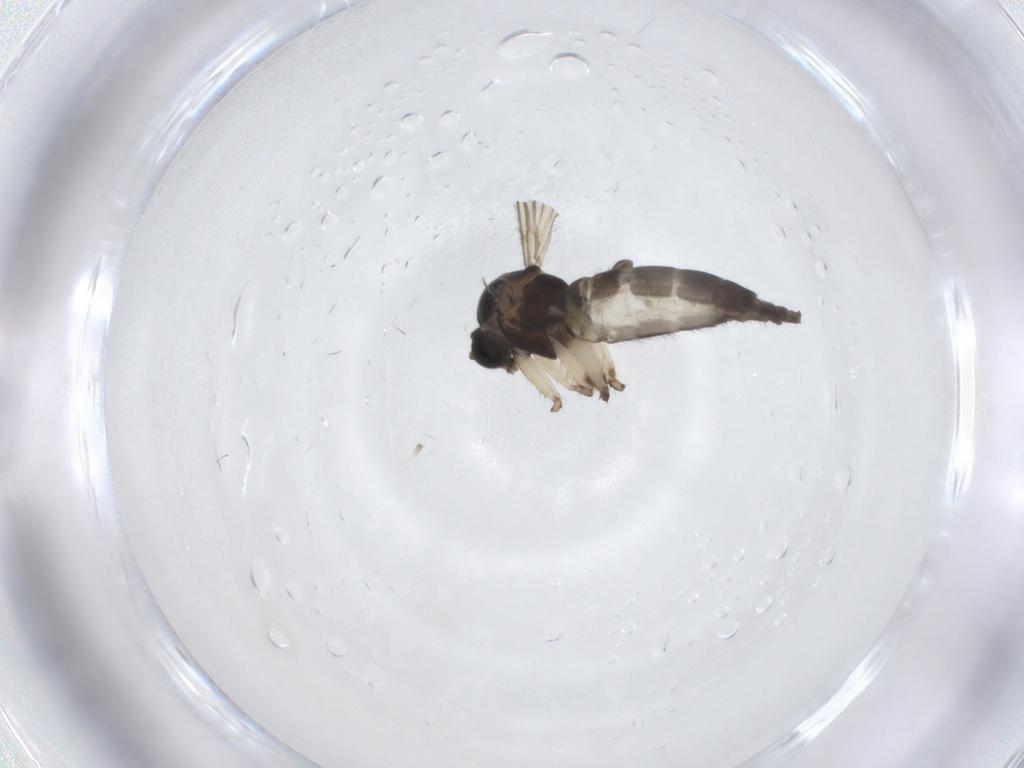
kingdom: Animalia
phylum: Arthropoda
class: Insecta
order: Diptera
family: Sciaridae
